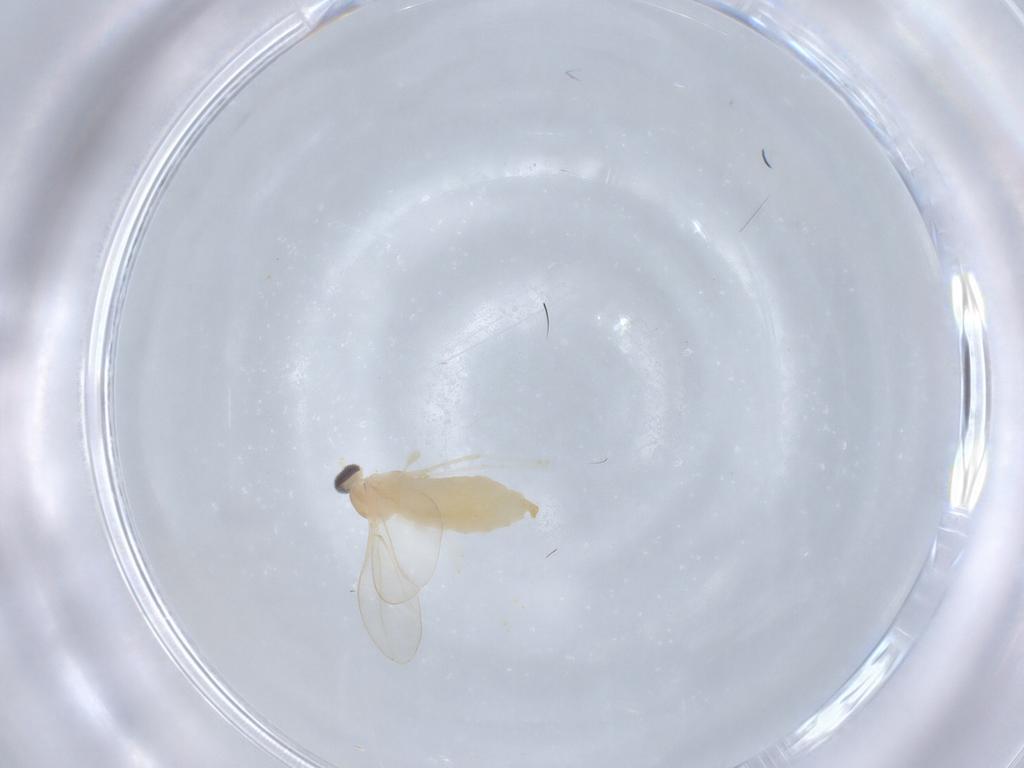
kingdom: Animalia
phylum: Arthropoda
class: Insecta
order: Diptera
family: Cecidomyiidae
